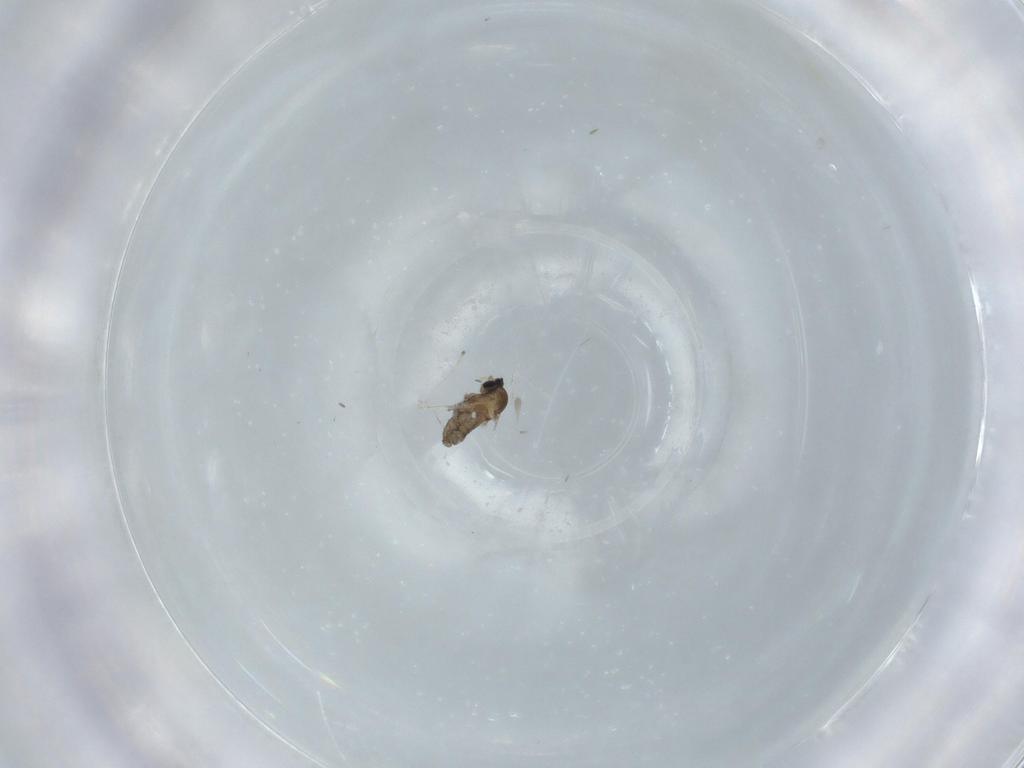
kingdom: Animalia
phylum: Arthropoda
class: Insecta
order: Diptera
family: Cecidomyiidae
